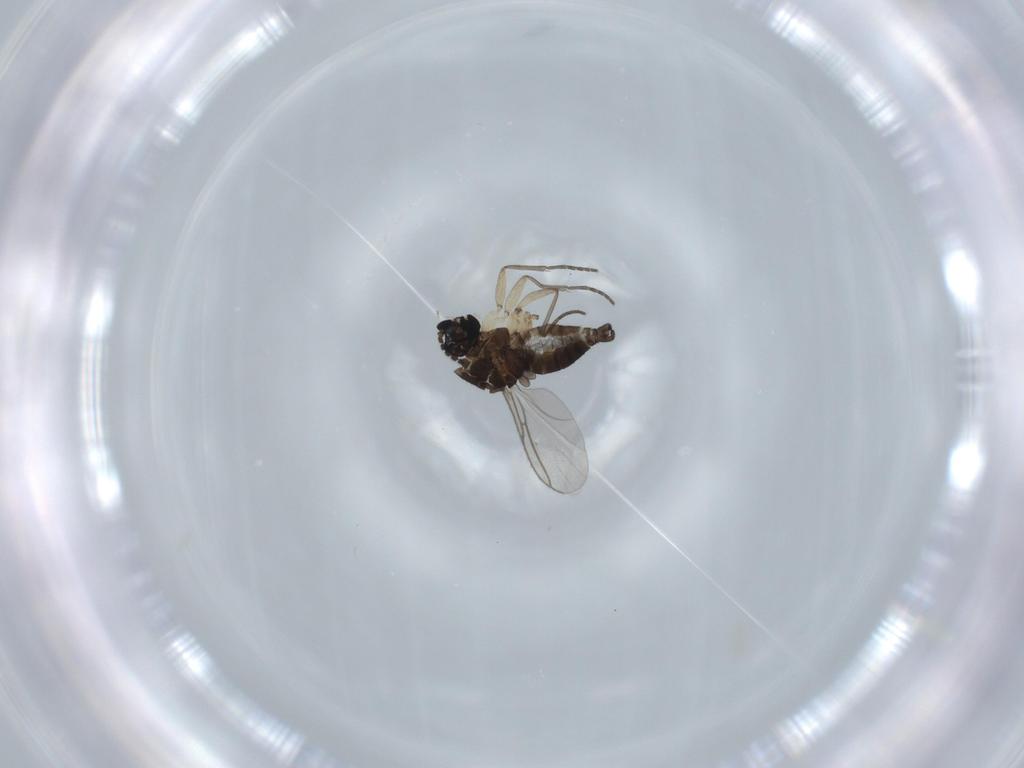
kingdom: Animalia
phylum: Arthropoda
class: Insecta
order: Diptera
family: Sciaridae
